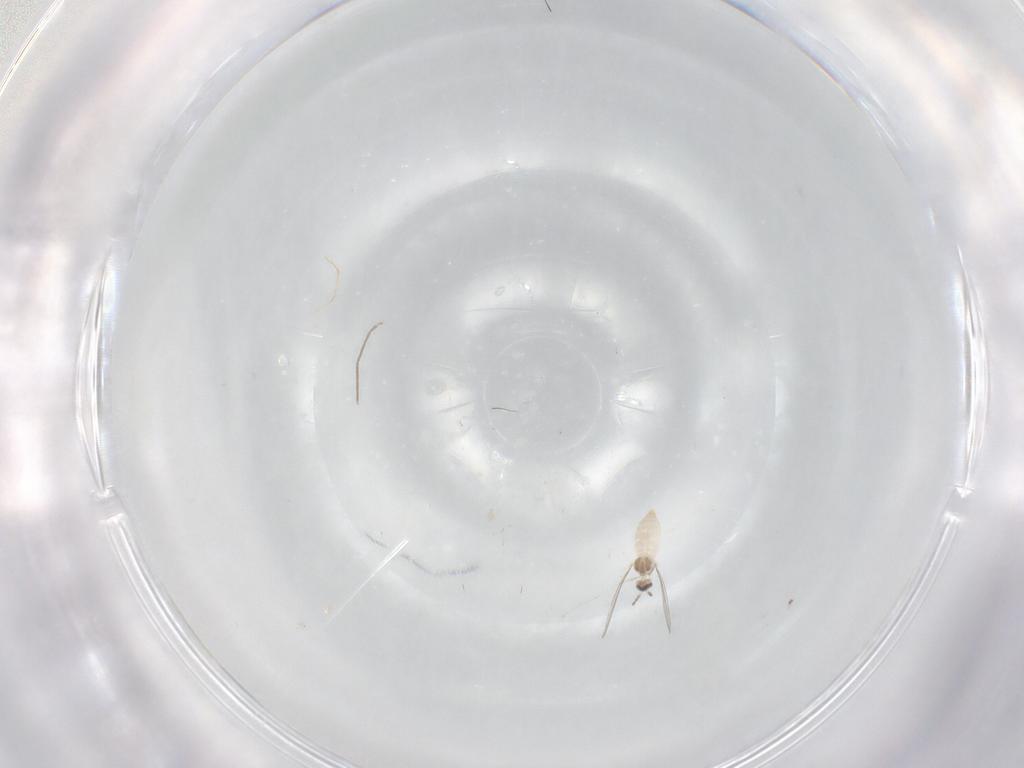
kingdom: Animalia
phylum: Arthropoda
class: Insecta
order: Diptera
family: Cecidomyiidae
